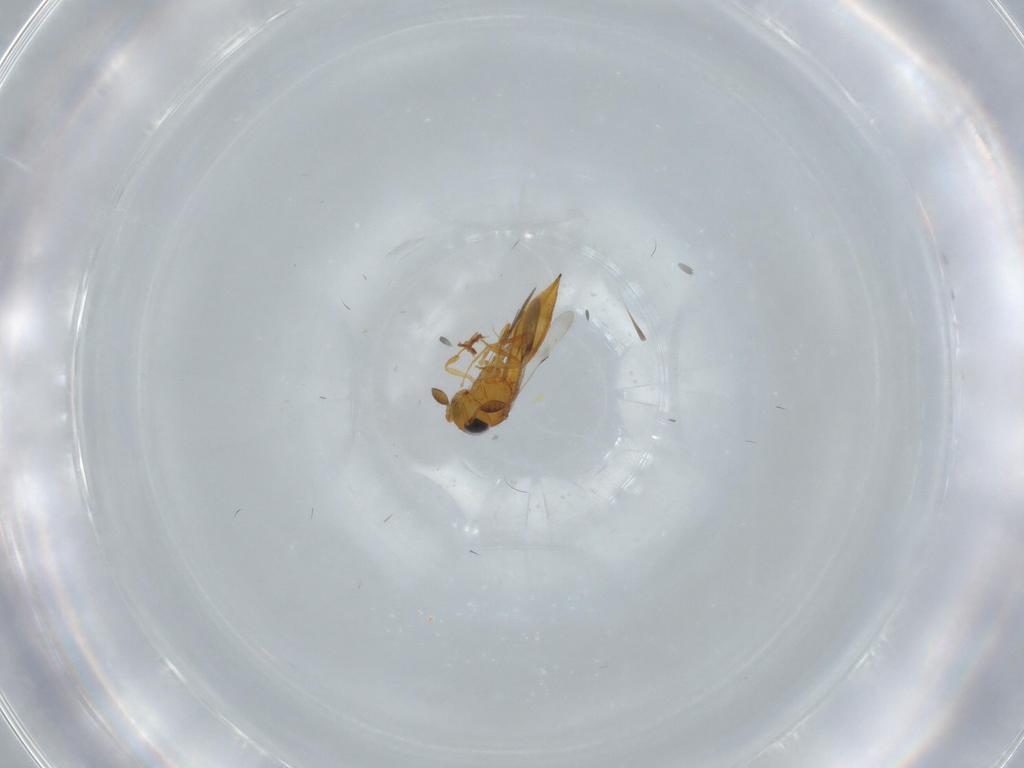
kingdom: Animalia
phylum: Arthropoda
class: Insecta
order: Hymenoptera
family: Scelionidae
